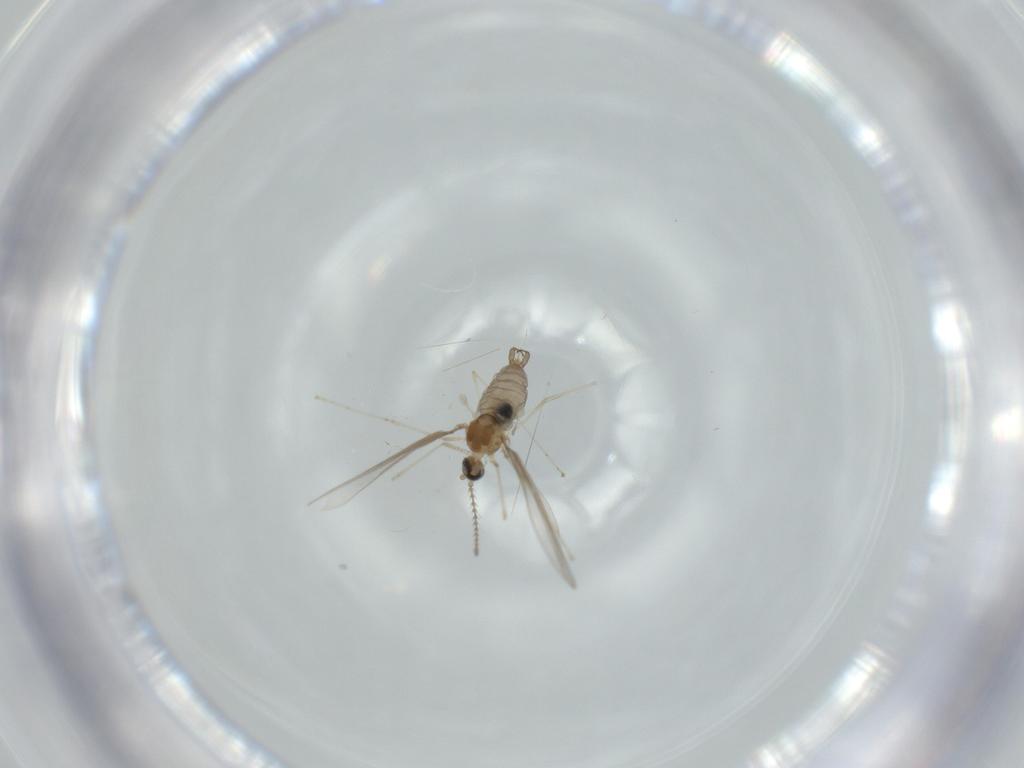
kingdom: Animalia
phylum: Arthropoda
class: Insecta
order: Diptera
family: Cecidomyiidae
